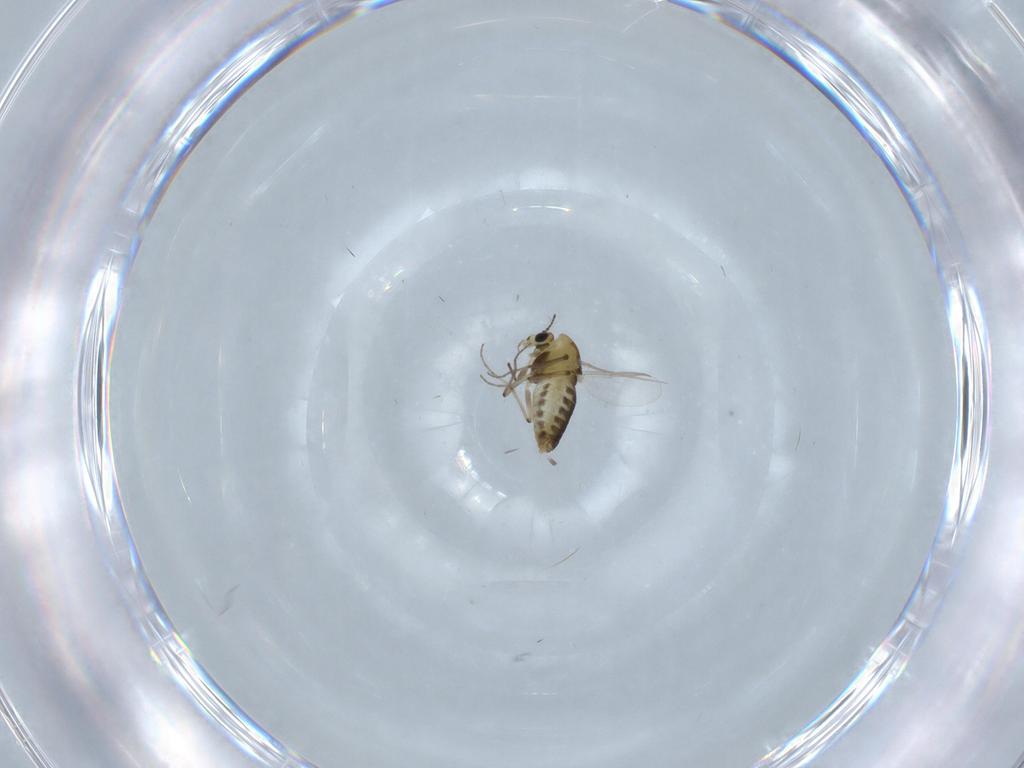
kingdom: Animalia
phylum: Arthropoda
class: Insecta
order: Diptera
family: Chironomidae
